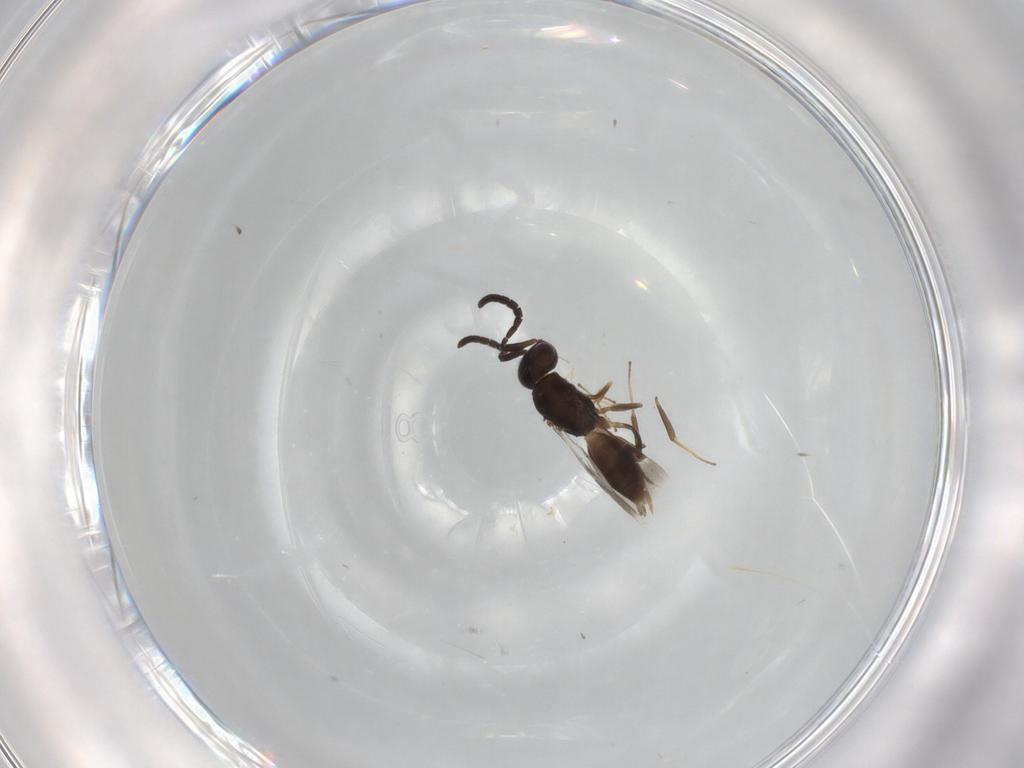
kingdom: Animalia
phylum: Arthropoda
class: Insecta
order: Hymenoptera
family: Megaspilidae
